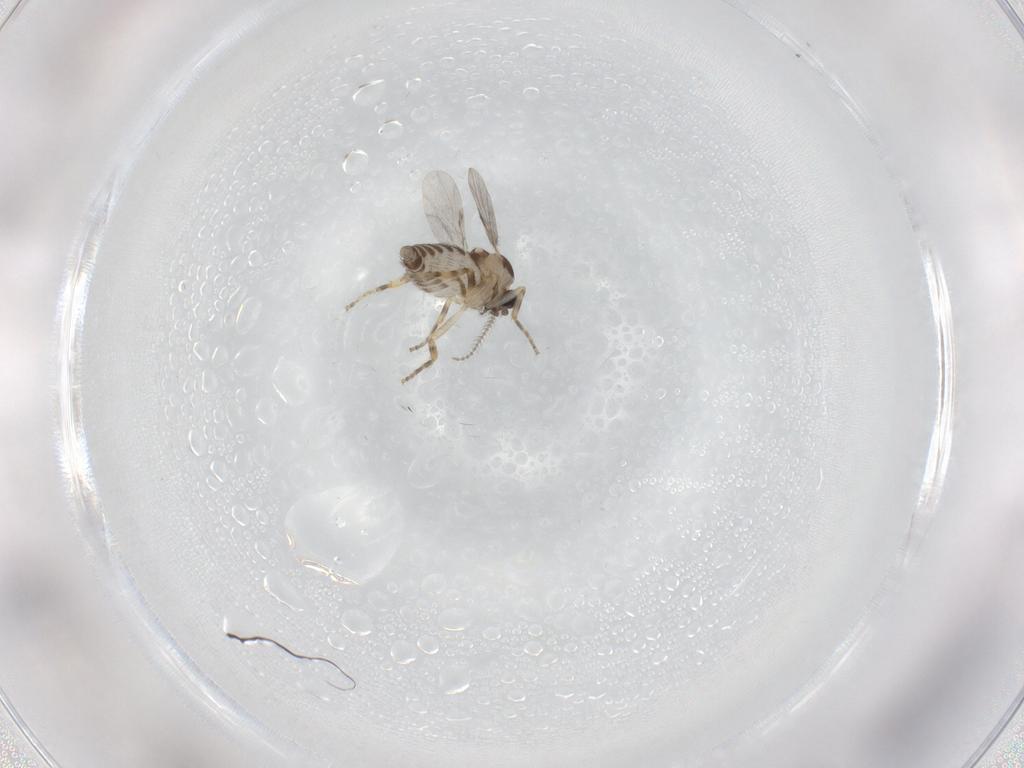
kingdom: Animalia
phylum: Arthropoda
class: Insecta
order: Diptera
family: Ceratopogonidae
